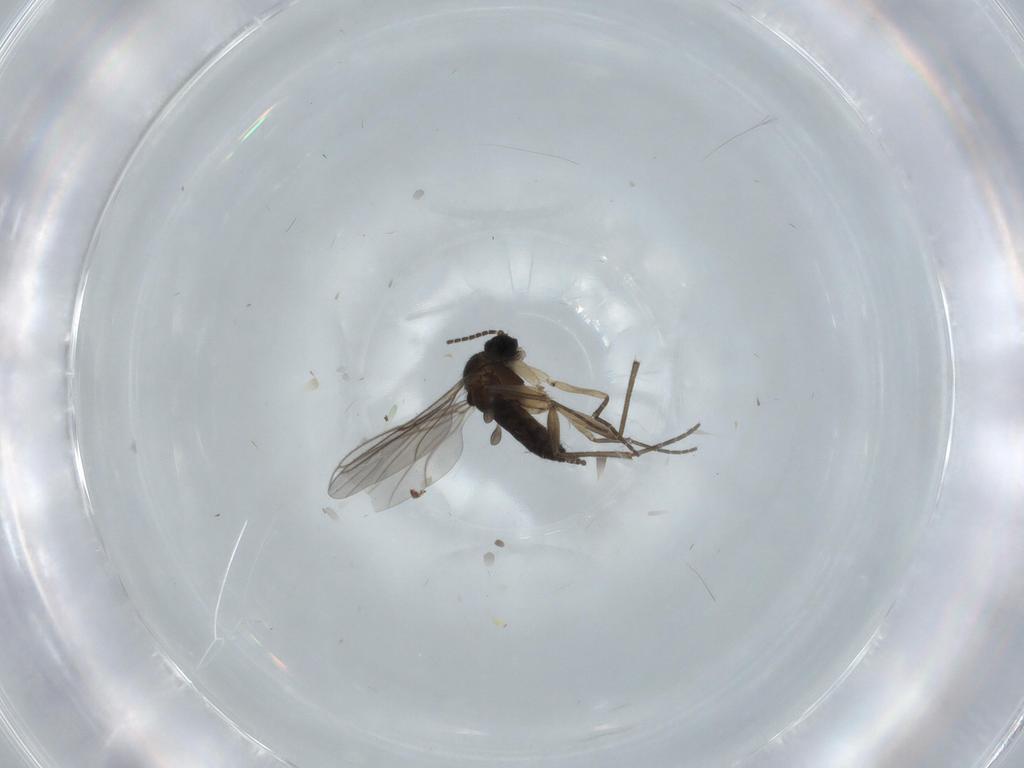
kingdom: Animalia
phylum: Arthropoda
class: Insecta
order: Diptera
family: Sciaridae
